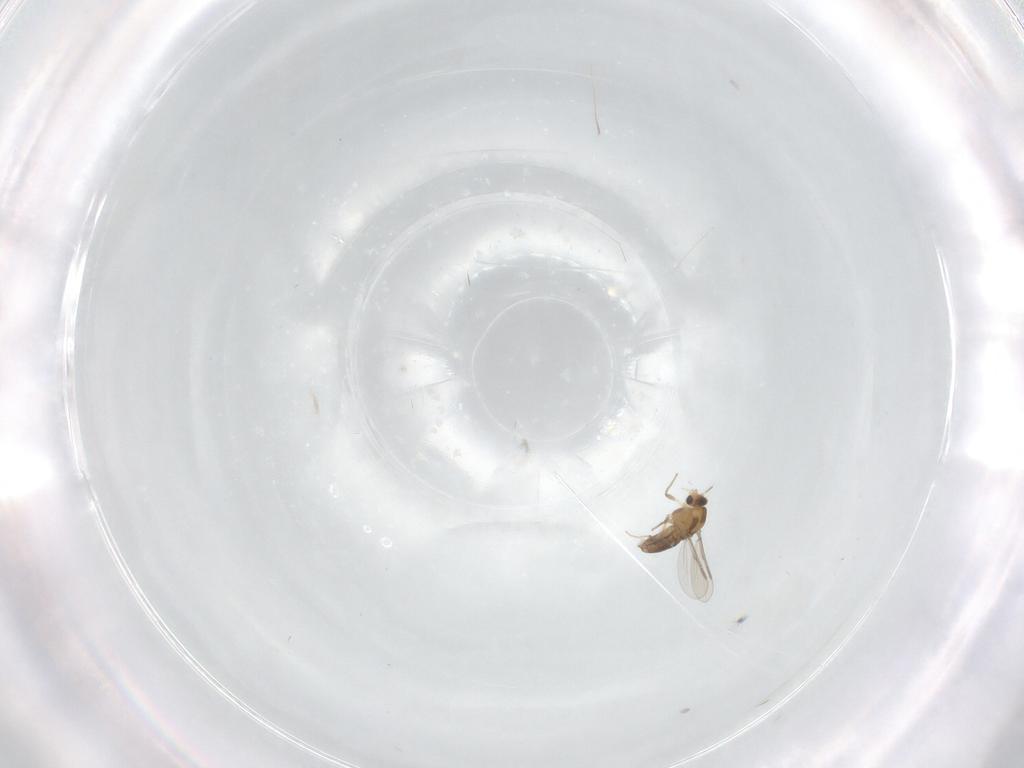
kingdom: Animalia
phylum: Arthropoda
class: Insecta
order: Diptera
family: Chironomidae
